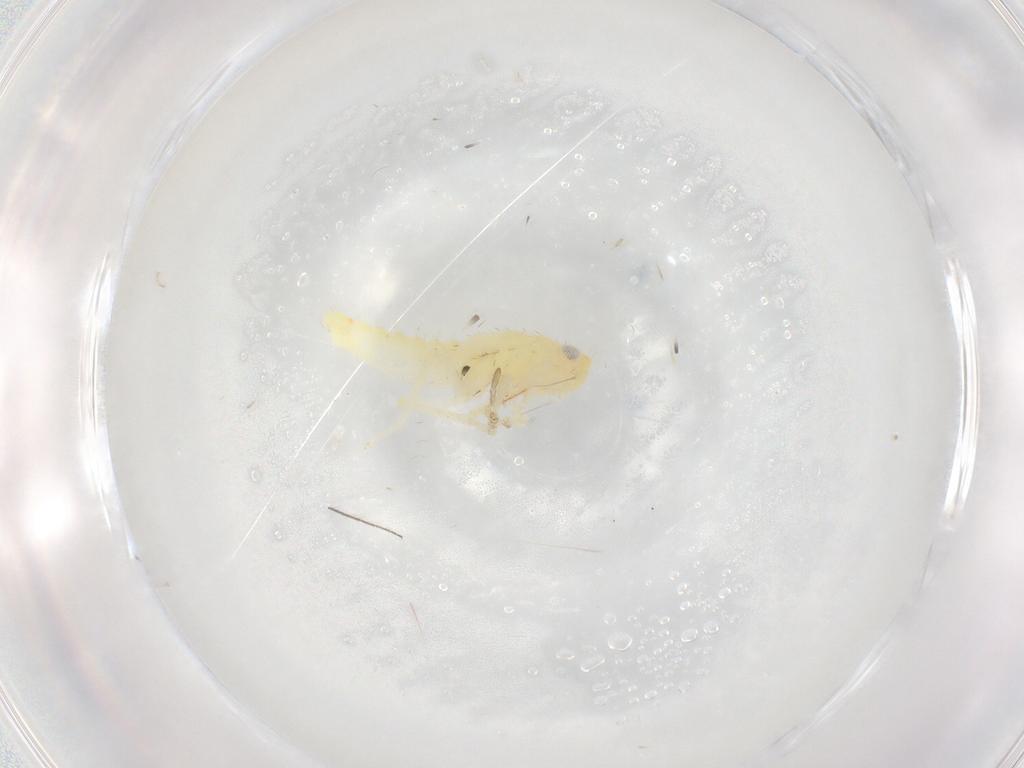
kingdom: Animalia
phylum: Arthropoda
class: Insecta
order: Hemiptera
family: Cicadellidae
